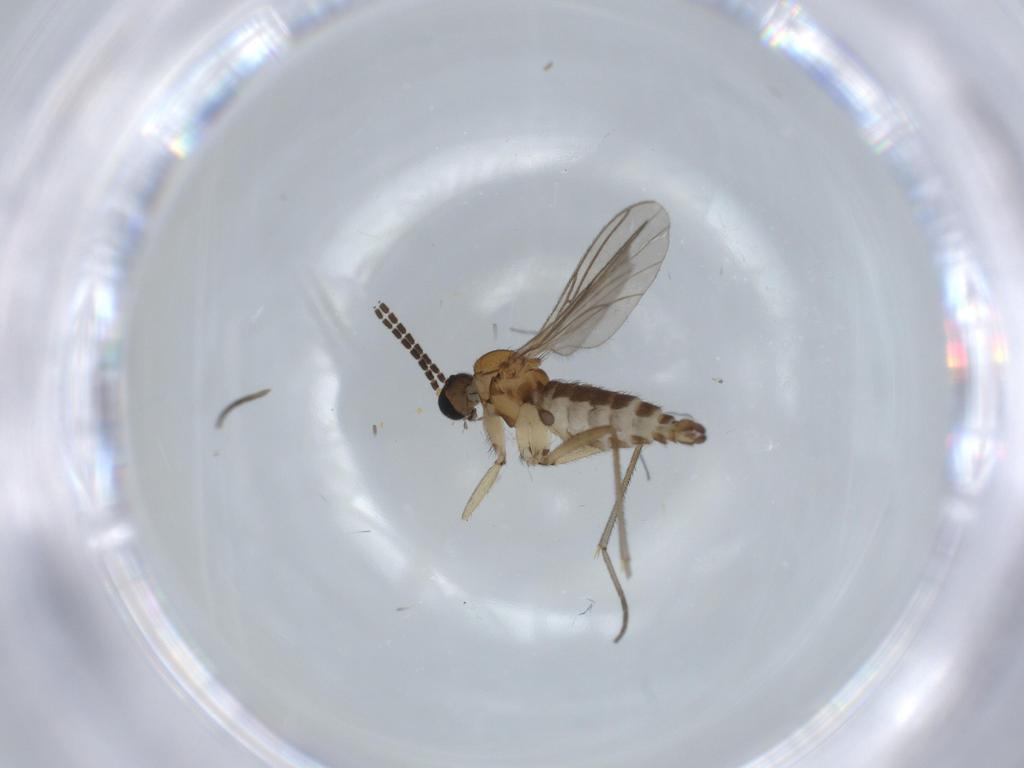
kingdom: Animalia
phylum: Arthropoda
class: Insecta
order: Diptera
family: Sciaridae
